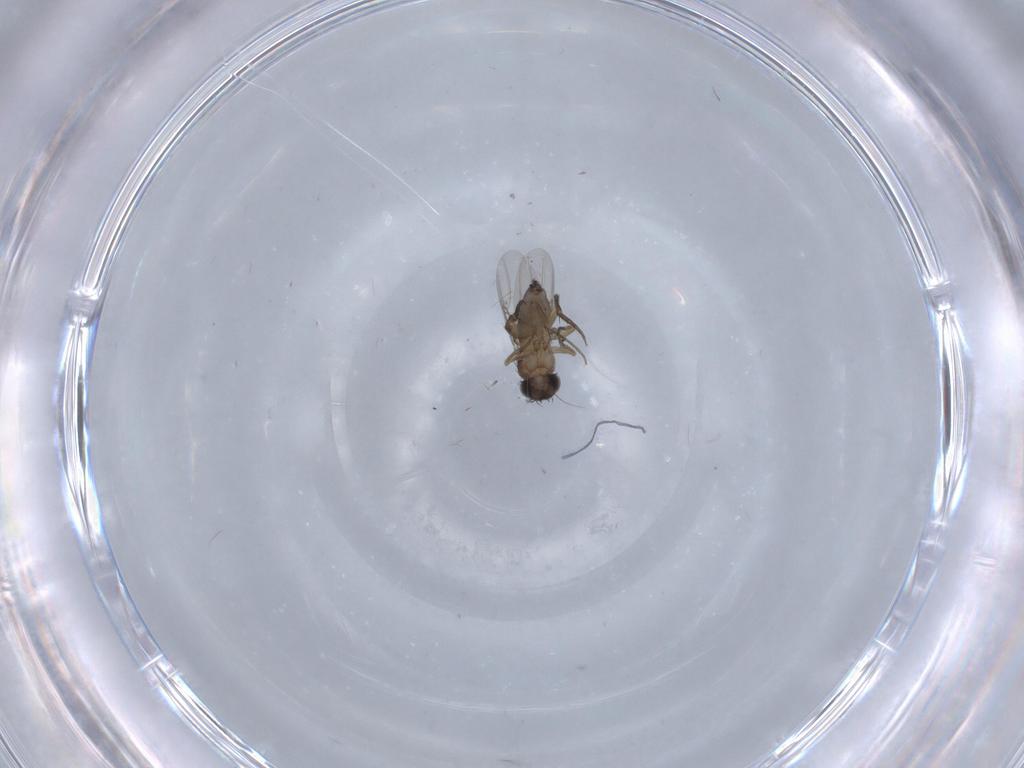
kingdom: Animalia
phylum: Arthropoda
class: Insecta
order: Diptera
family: Phoridae
